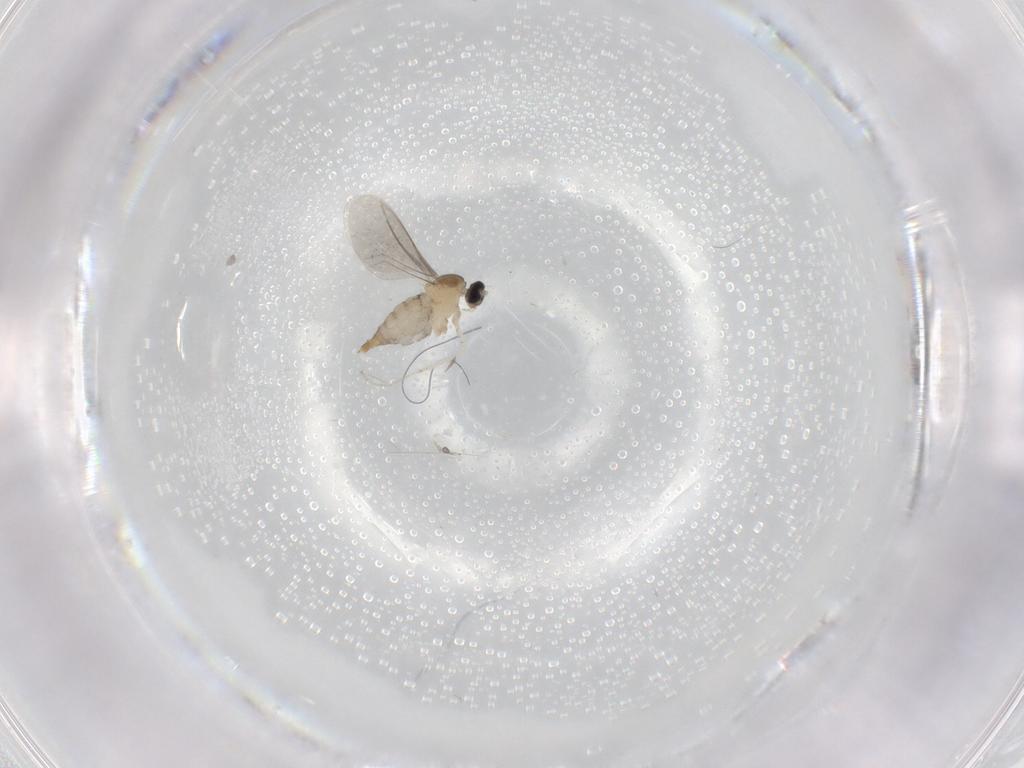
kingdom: Animalia
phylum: Arthropoda
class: Insecta
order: Diptera
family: Cecidomyiidae
